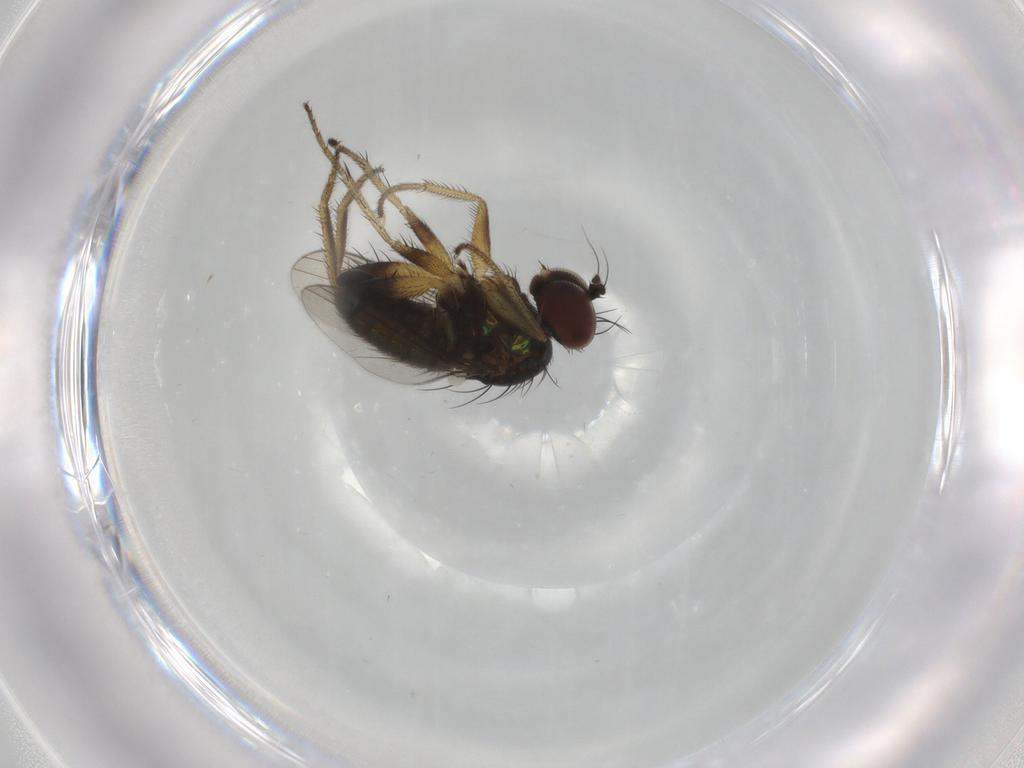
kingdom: Animalia
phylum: Arthropoda
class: Insecta
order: Diptera
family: Dolichopodidae
